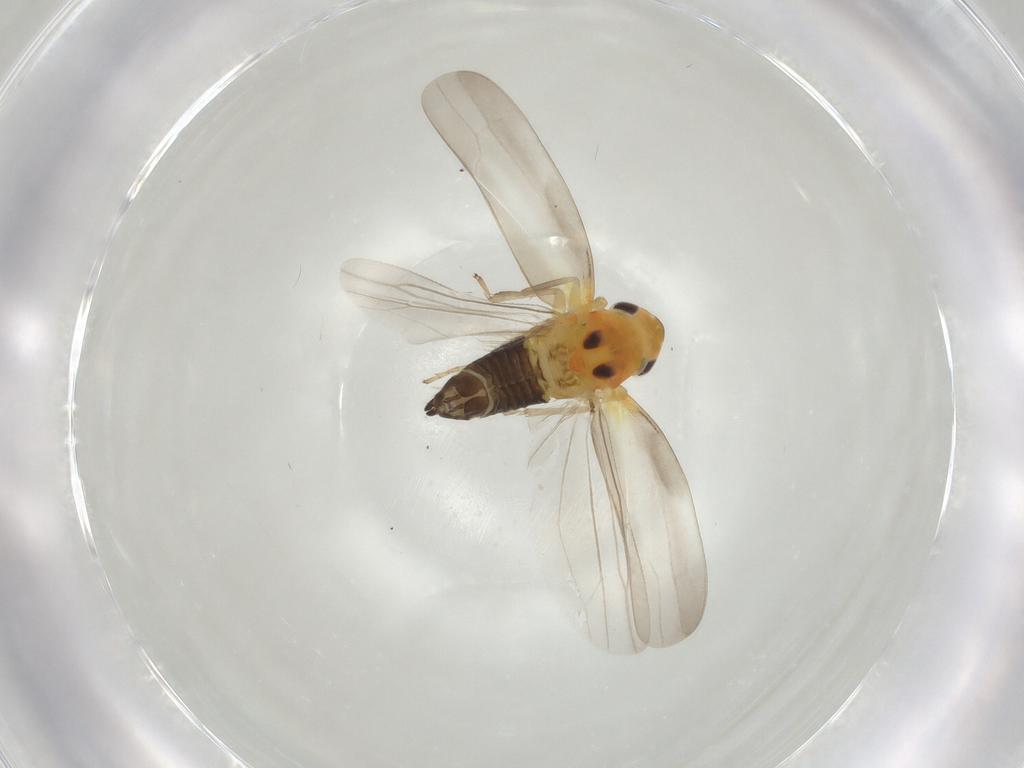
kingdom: Animalia
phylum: Arthropoda
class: Insecta
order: Hemiptera
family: Cicadellidae
